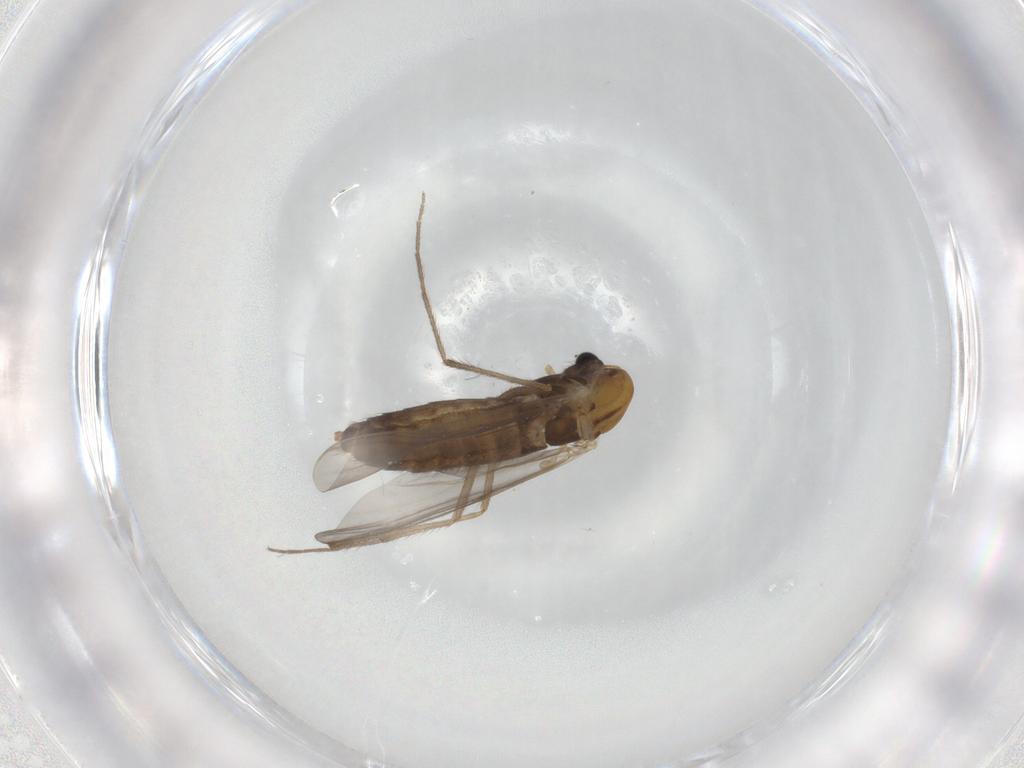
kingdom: Animalia
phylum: Arthropoda
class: Insecta
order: Diptera
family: Chironomidae
